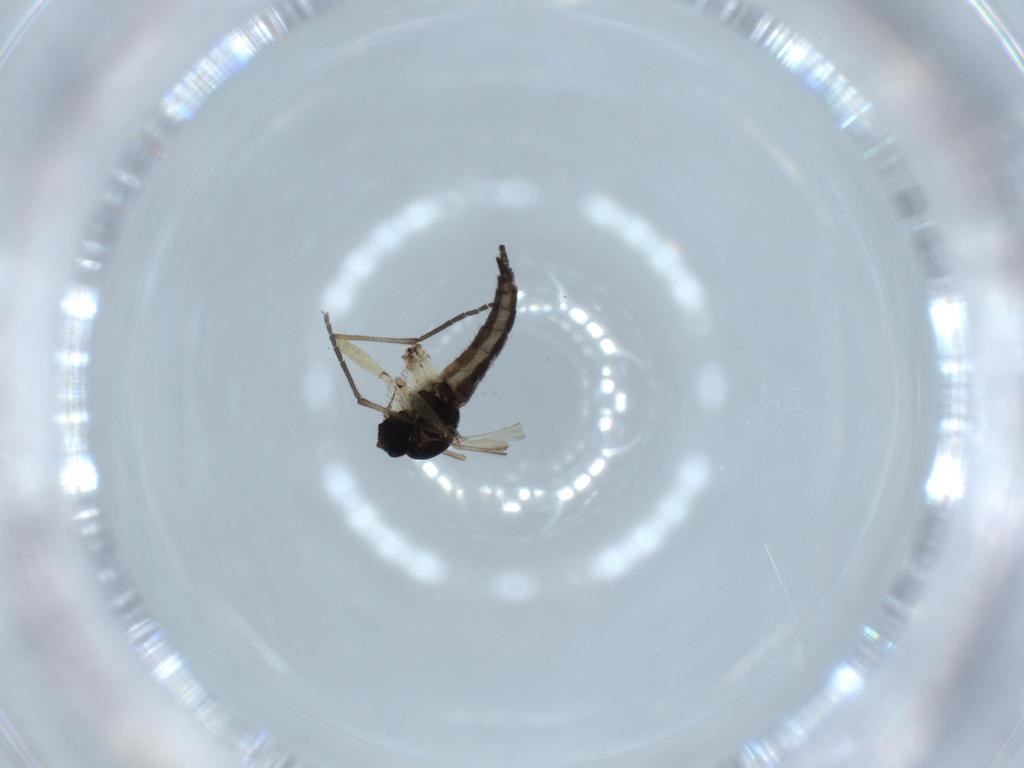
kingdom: Animalia
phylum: Arthropoda
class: Insecta
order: Diptera
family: Sciaridae
